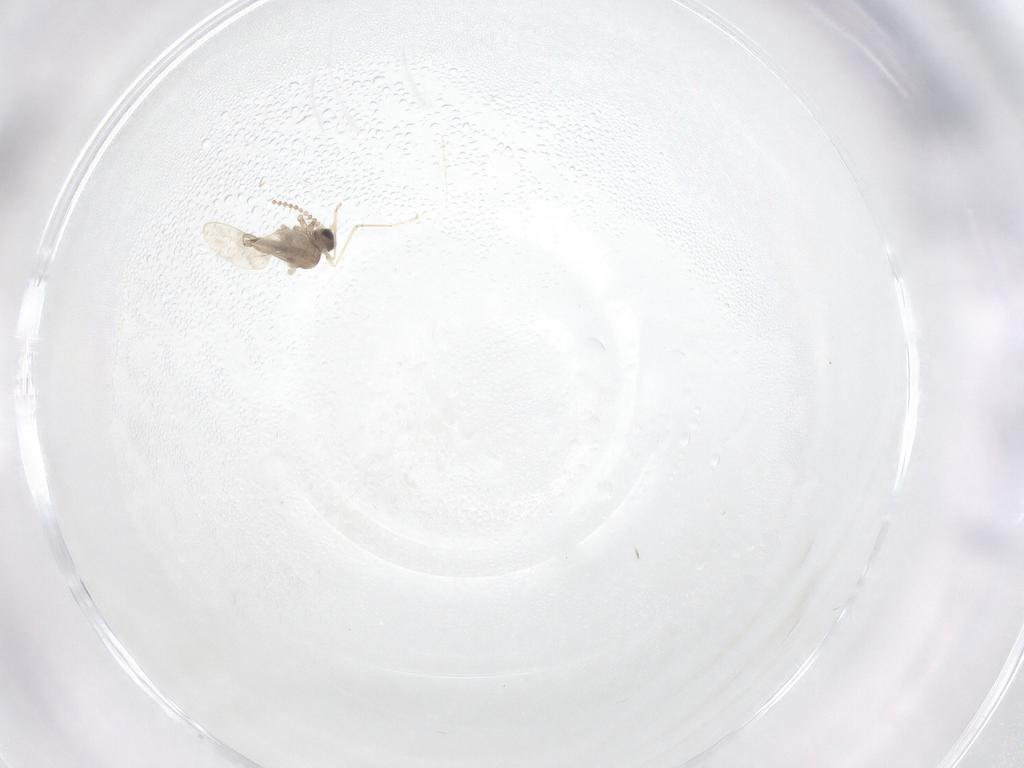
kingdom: Animalia
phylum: Arthropoda
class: Insecta
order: Diptera
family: Cecidomyiidae
